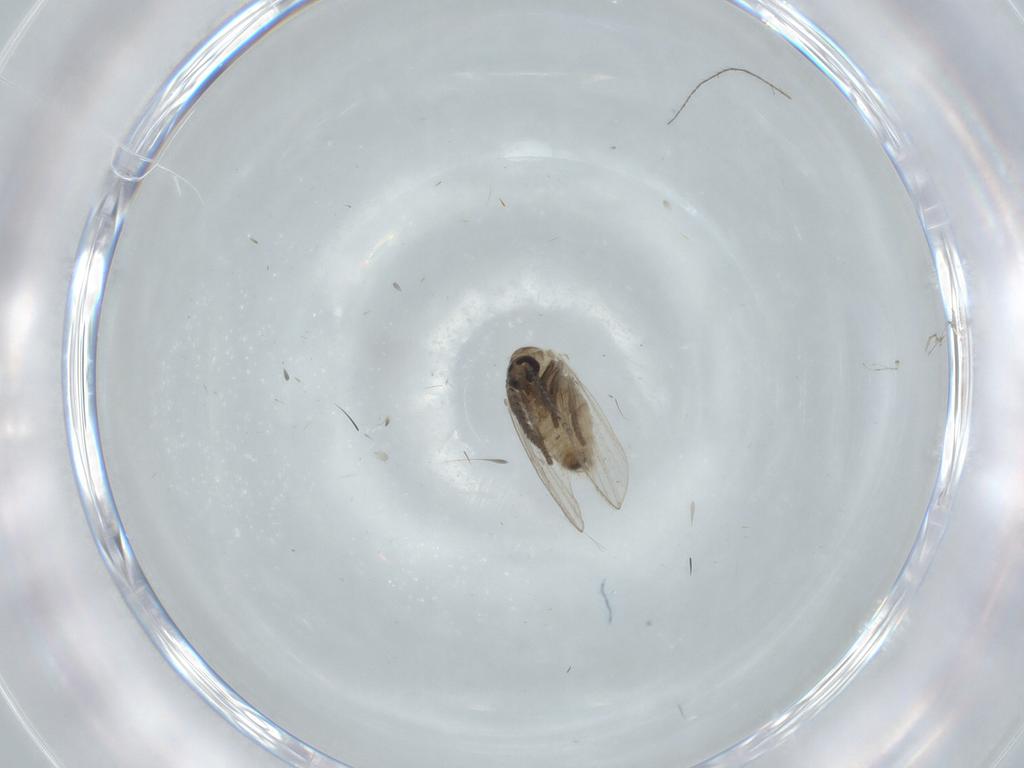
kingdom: Animalia
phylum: Arthropoda
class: Insecta
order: Diptera
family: Psychodidae
